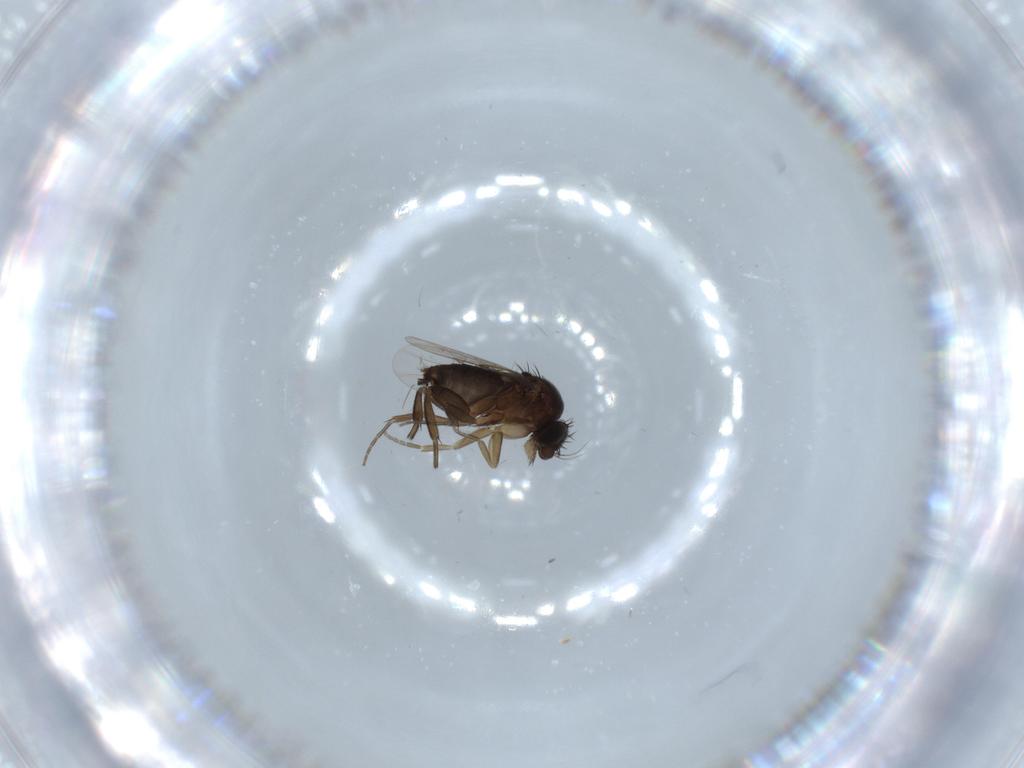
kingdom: Animalia
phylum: Arthropoda
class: Insecta
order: Diptera
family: Phoridae
